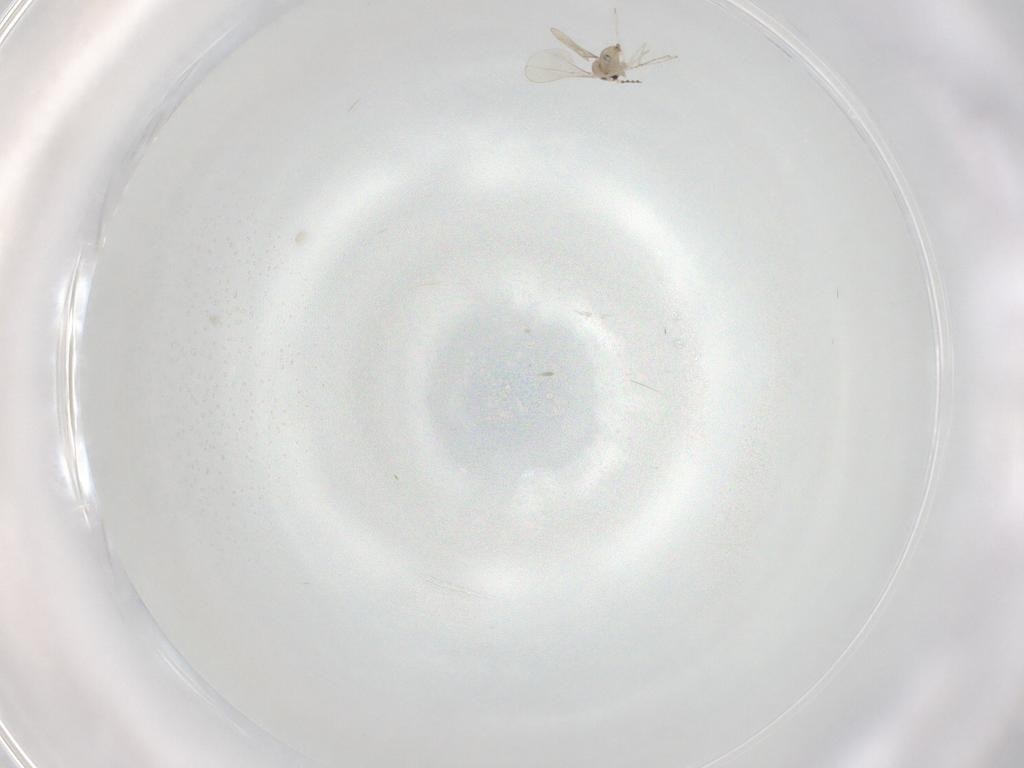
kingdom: Animalia
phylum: Arthropoda
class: Insecta
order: Diptera
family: Cecidomyiidae
